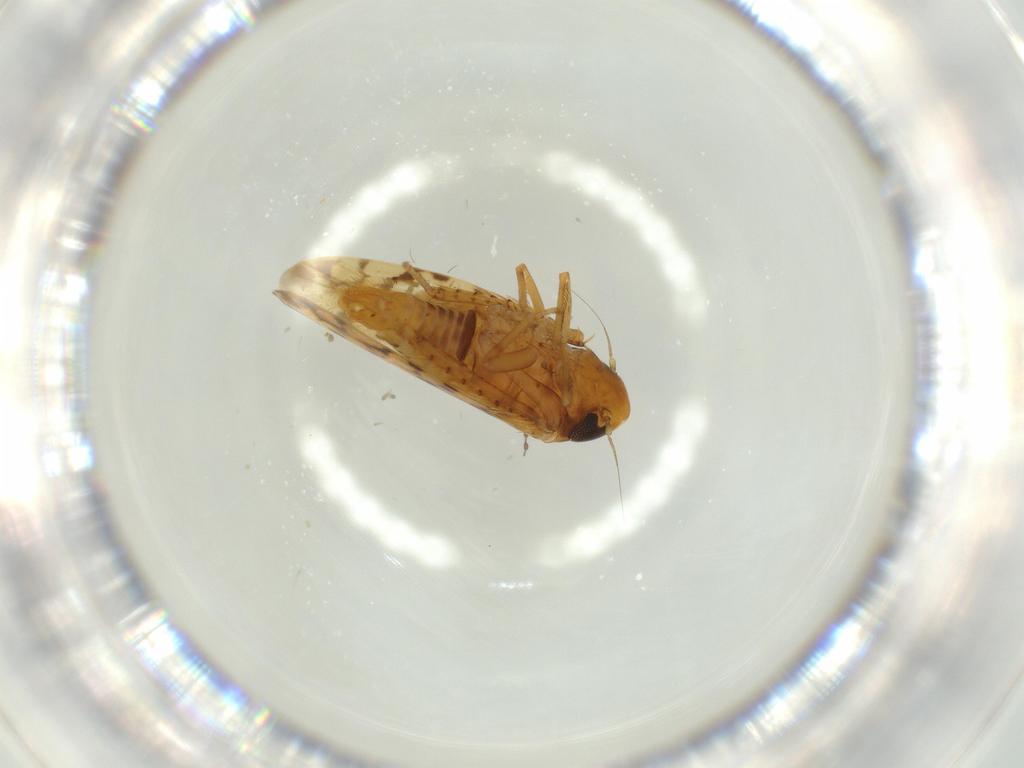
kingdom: Animalia
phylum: Arthropoda
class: Insecta
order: Hemiptera
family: Cicadellidae
